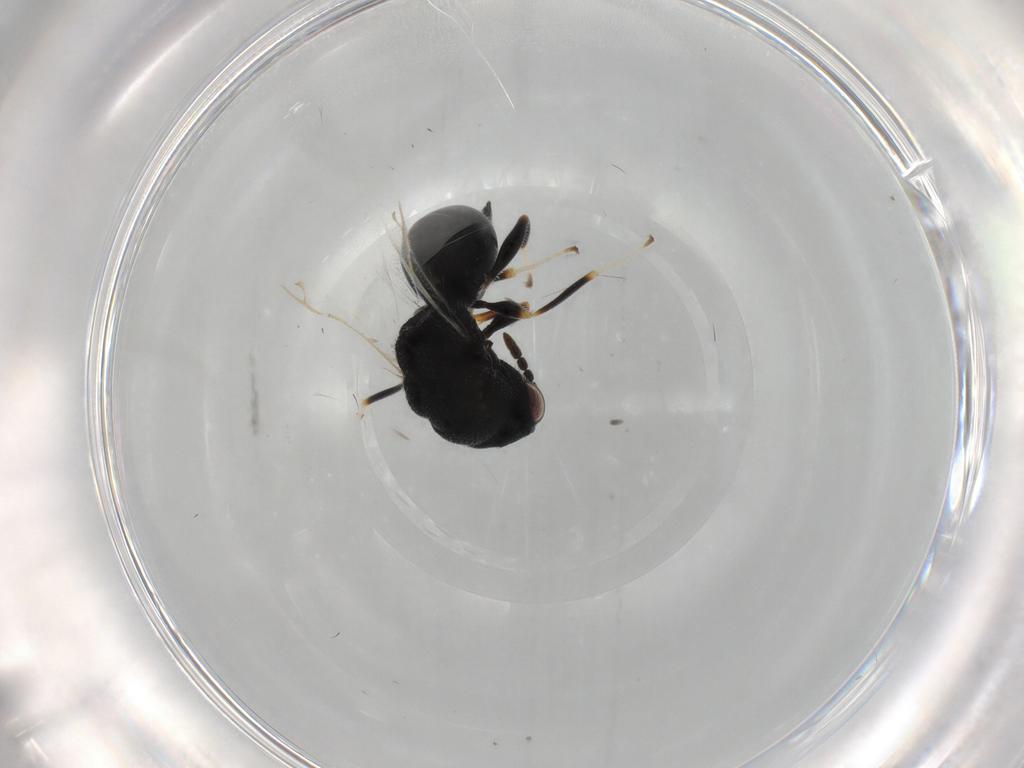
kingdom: Animalia
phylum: Arthropoda
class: Insecta
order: Hymenoptera
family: Eurytomidae
